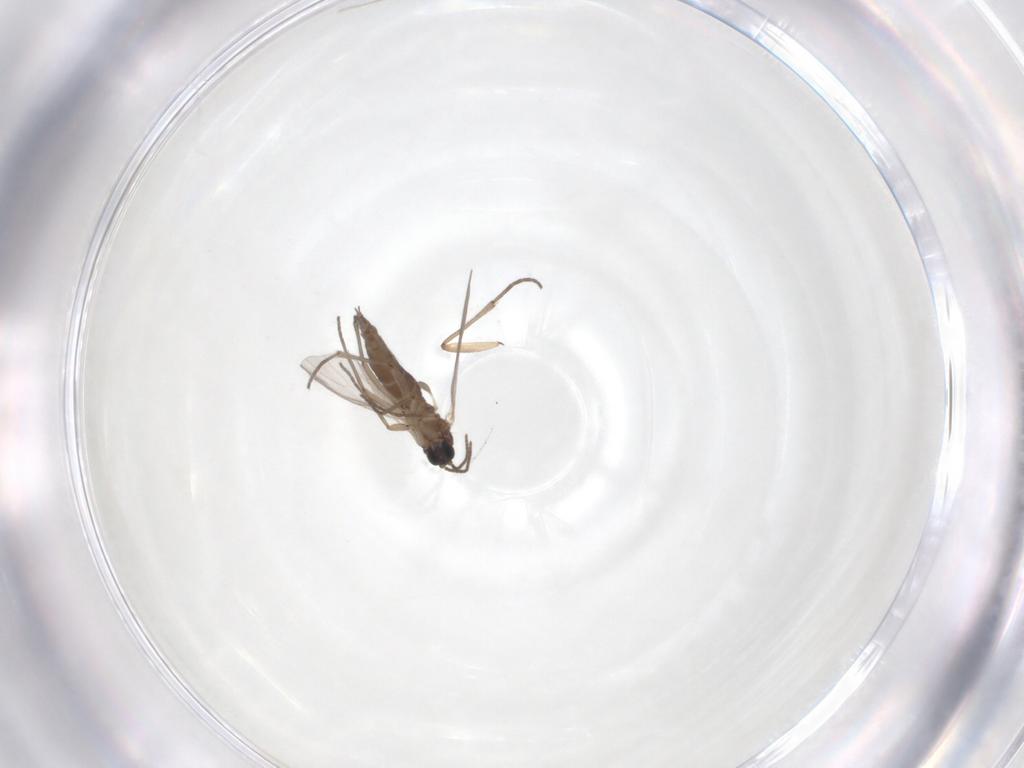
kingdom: Animalia
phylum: Arthropoda
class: Insecta
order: Diptera
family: Sciaridae
